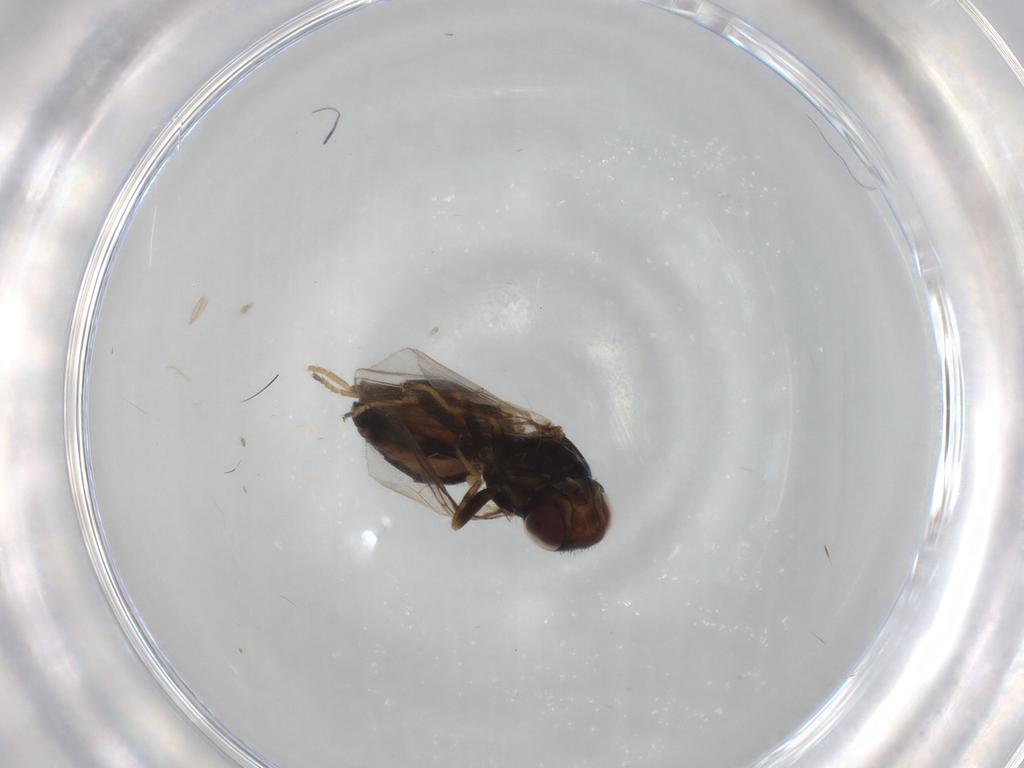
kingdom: Animalia
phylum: Arthropoda
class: Insecta
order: Diptera
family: Chloropidae
